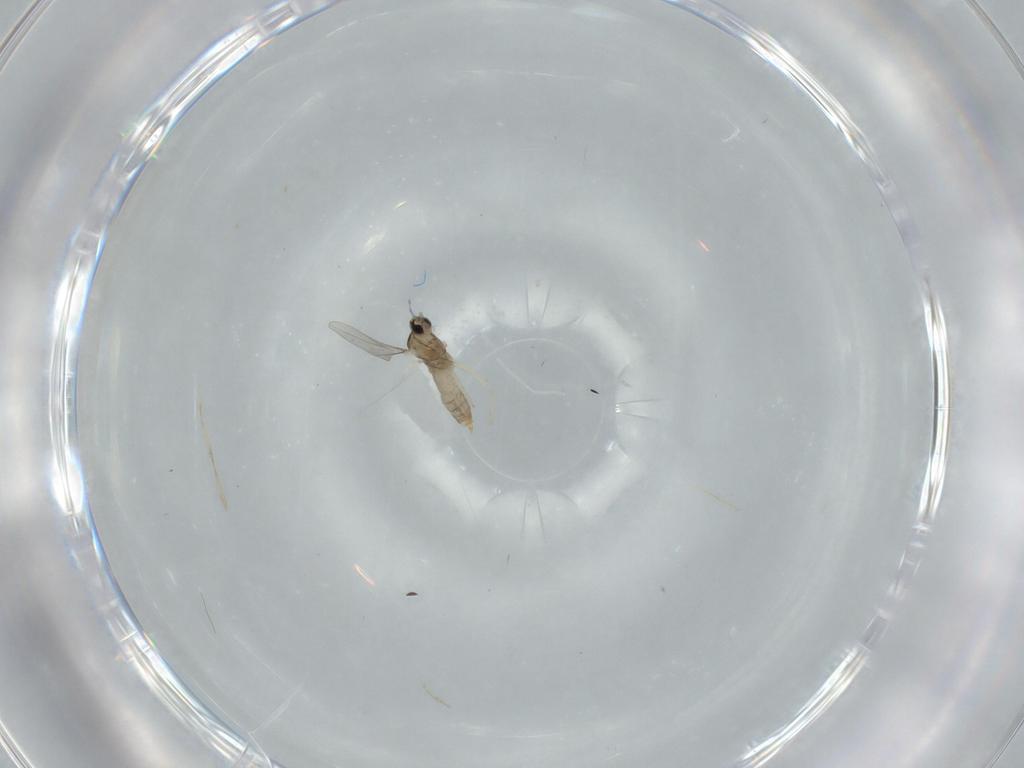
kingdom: Animalia
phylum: Arthropoda
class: Insecta
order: Diptera
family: Cecidomyiidae
